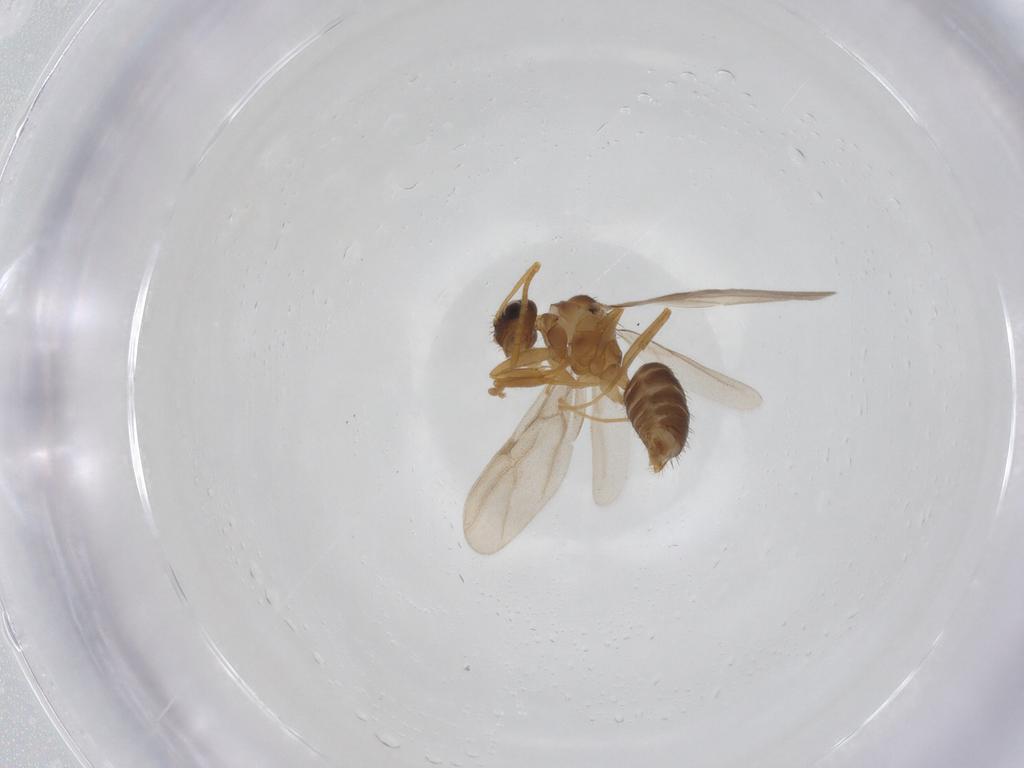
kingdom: Animalia
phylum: Arthropoda
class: Insecta
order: Hymenoptera
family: Formicidae
